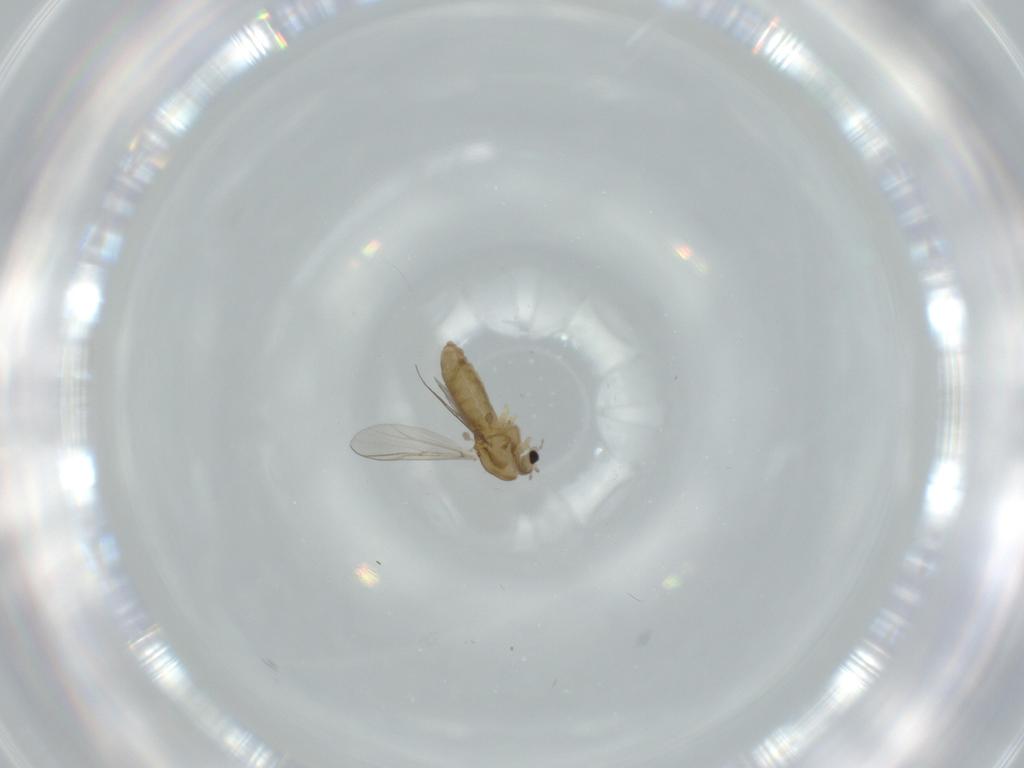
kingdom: Animalia
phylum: Arthropoda
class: Insecta
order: Diptera
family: Chironomidae
